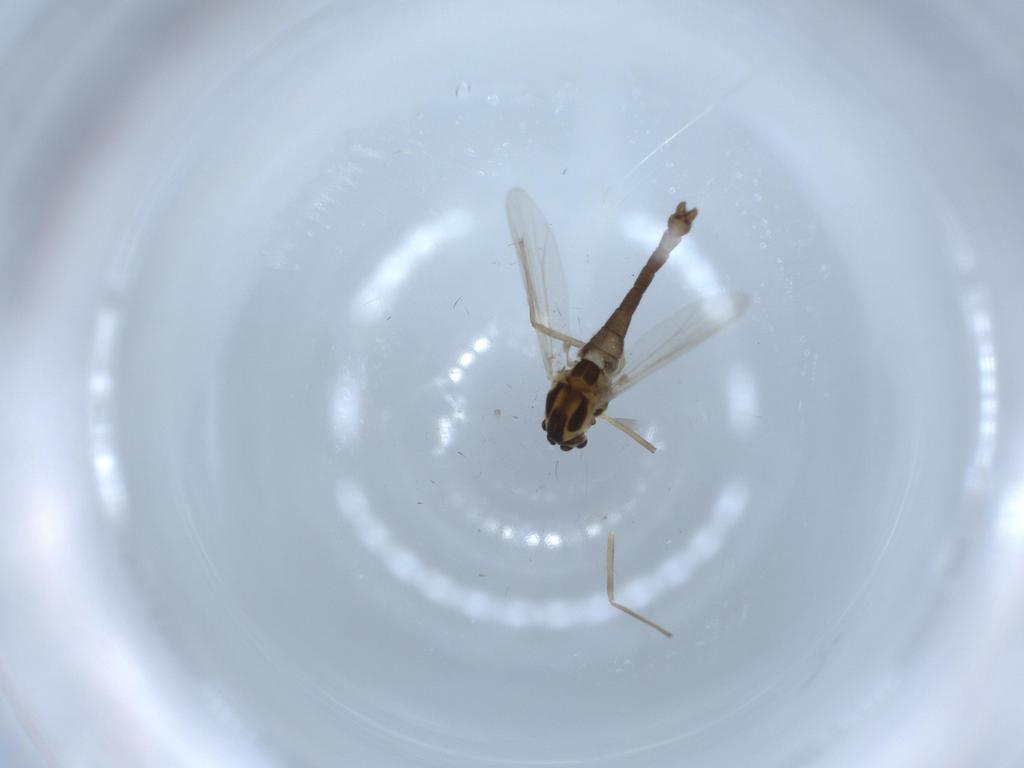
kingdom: Animalia
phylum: Arthropoda
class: Insecta
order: Diptera
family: Chironomidae
